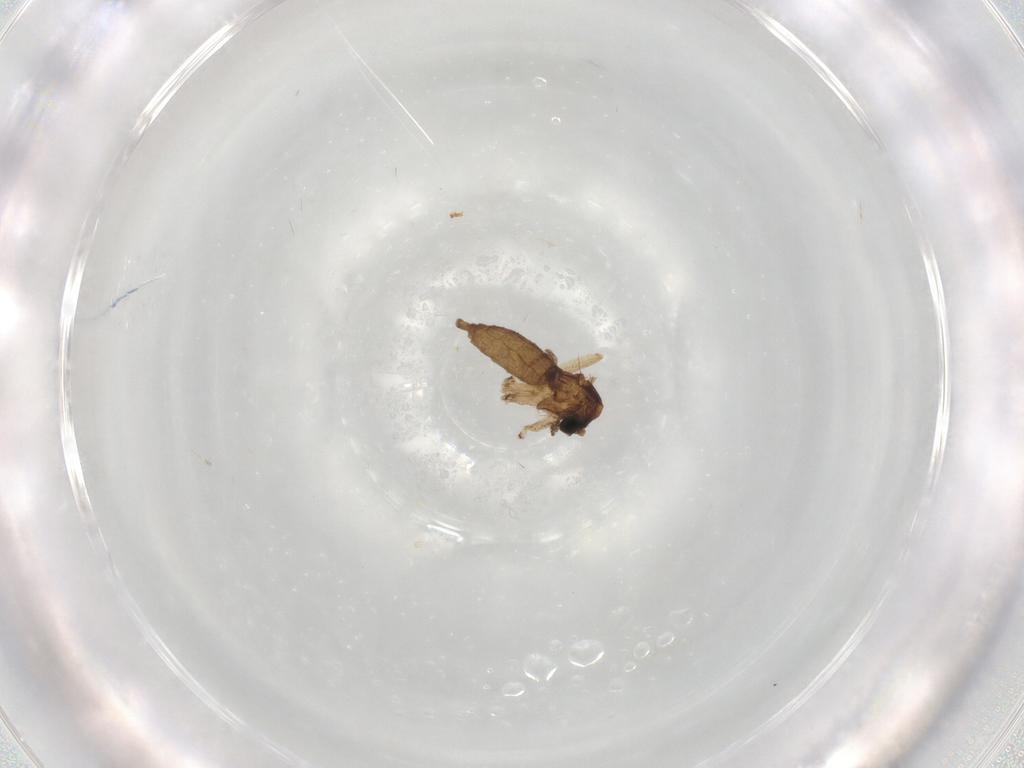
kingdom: Animalia
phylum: Arthropoda
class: Insecta
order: Diptera
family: Sciaridae
